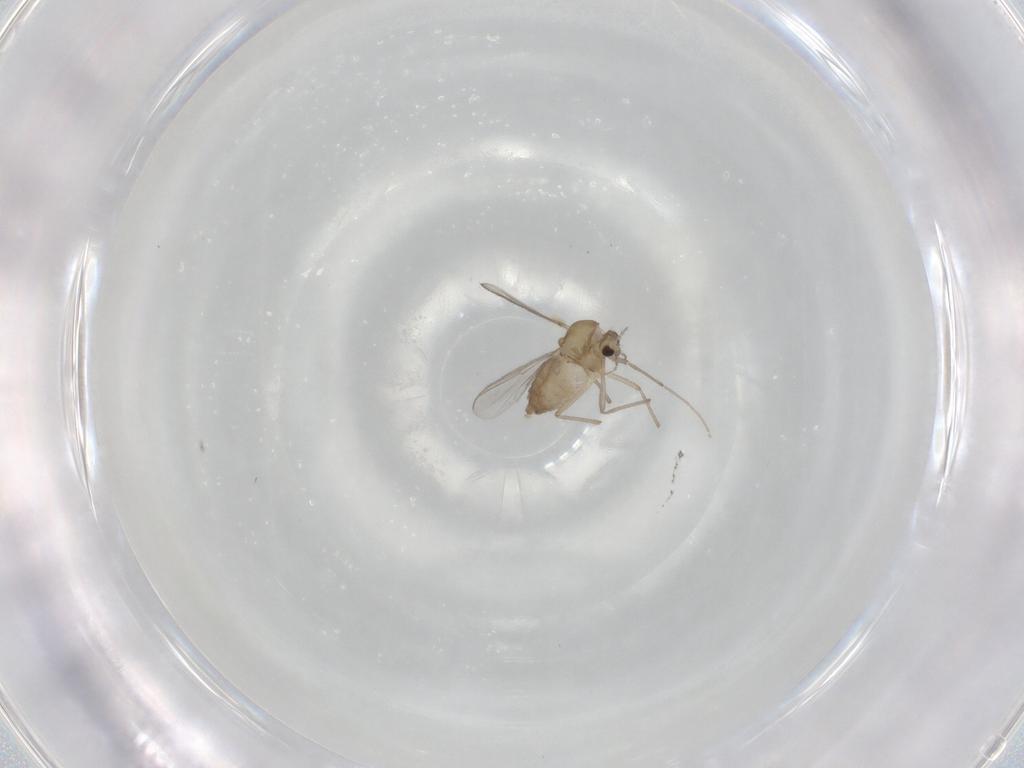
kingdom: Animalia
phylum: Arthropoda
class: Insecta
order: Diptera
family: Chironomidae
